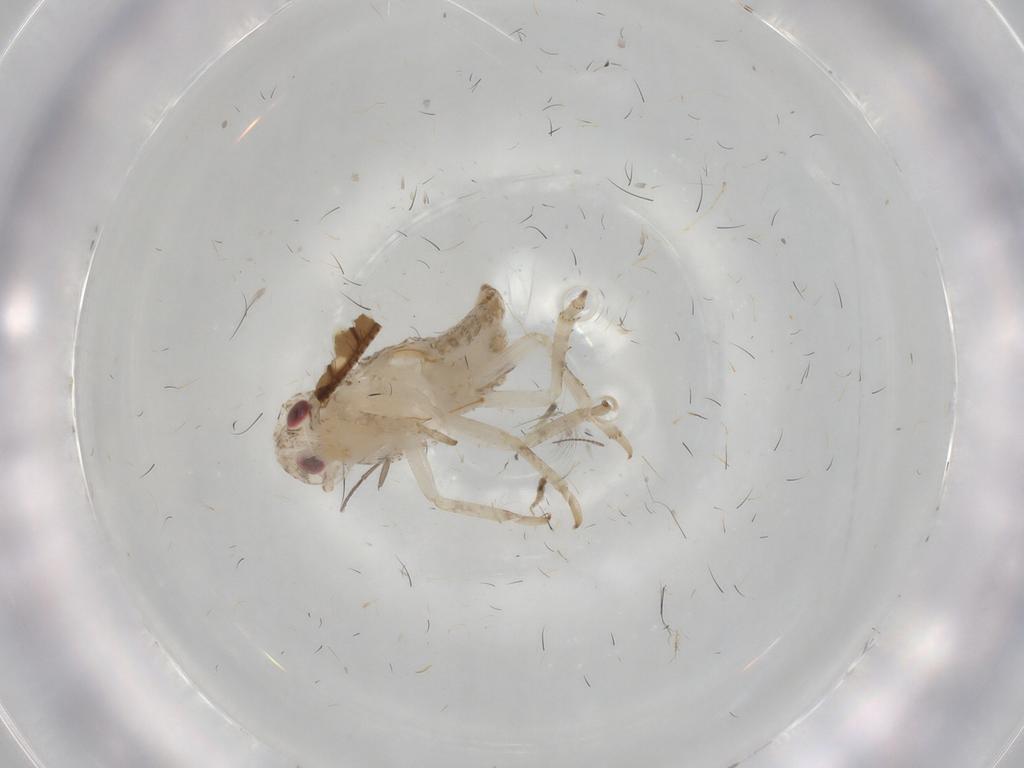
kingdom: Animalia
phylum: Arthropoda
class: Insecta
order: Hemiptera
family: Flatidae
